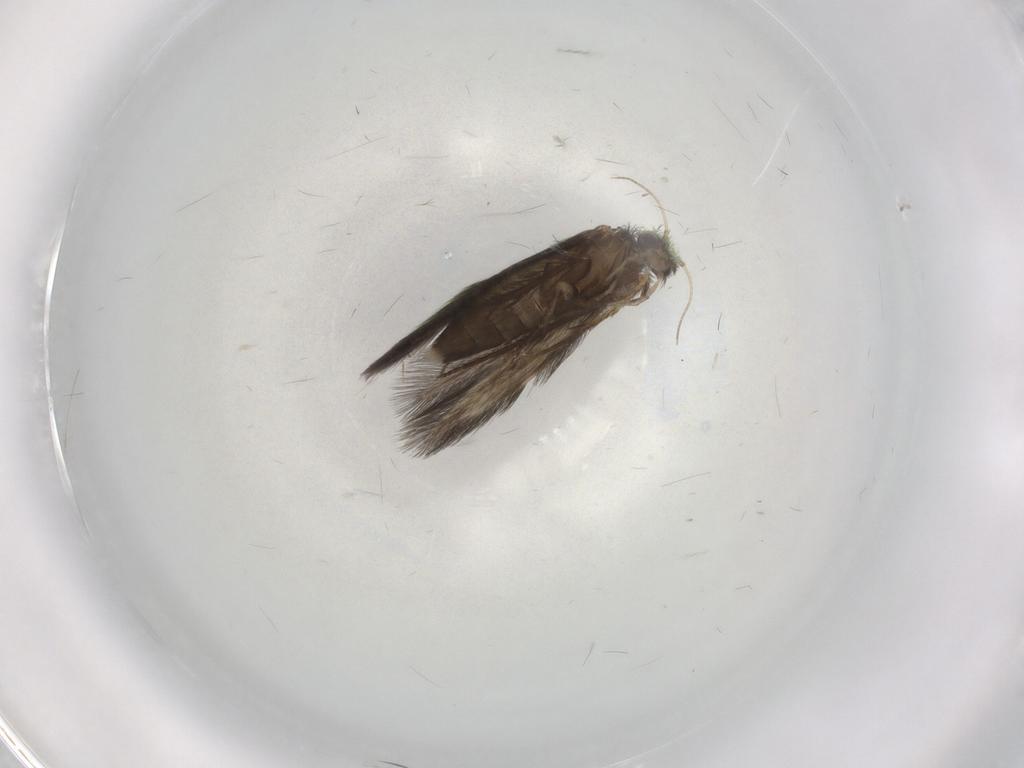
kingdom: Animalia
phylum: Arthropoda
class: Insecta
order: Trichoptera
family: Hydroptilidae
